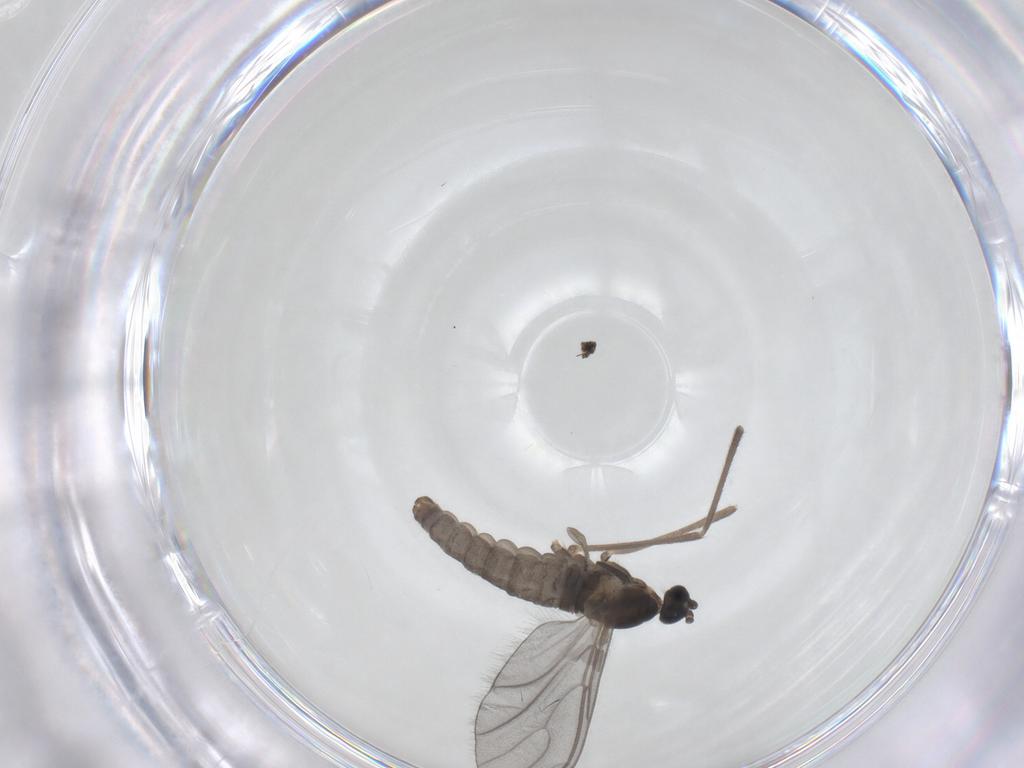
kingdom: Animalia
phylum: Arthropoda
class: Insecta
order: Diptera
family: Cecidomyiidae
